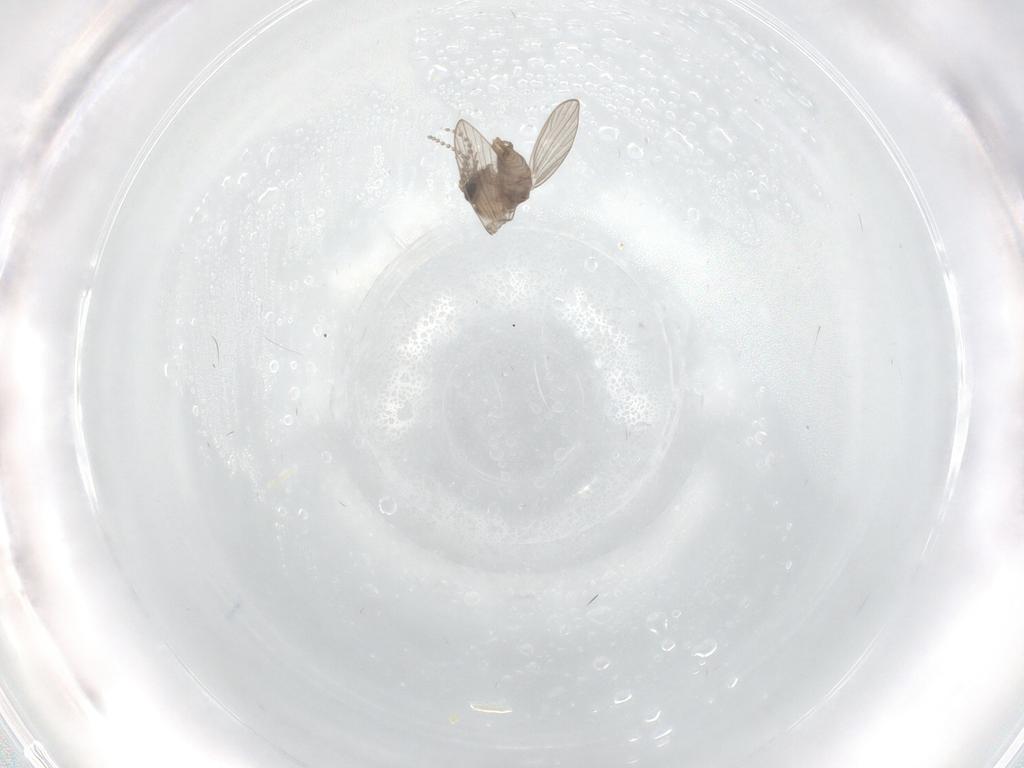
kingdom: Animalia
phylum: Arthropoda
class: Insecta
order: Diptera
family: Psychodidae
